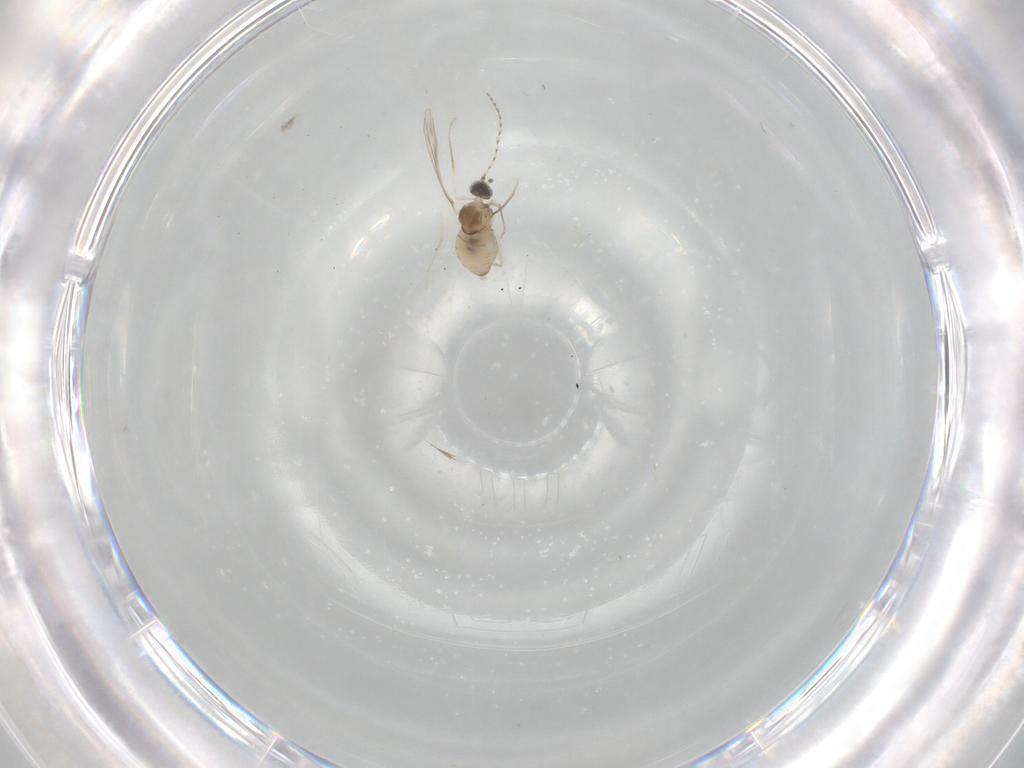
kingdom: Animalia
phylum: Arthropoda
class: Insecta
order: Diptera
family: Cecidomyiidae
